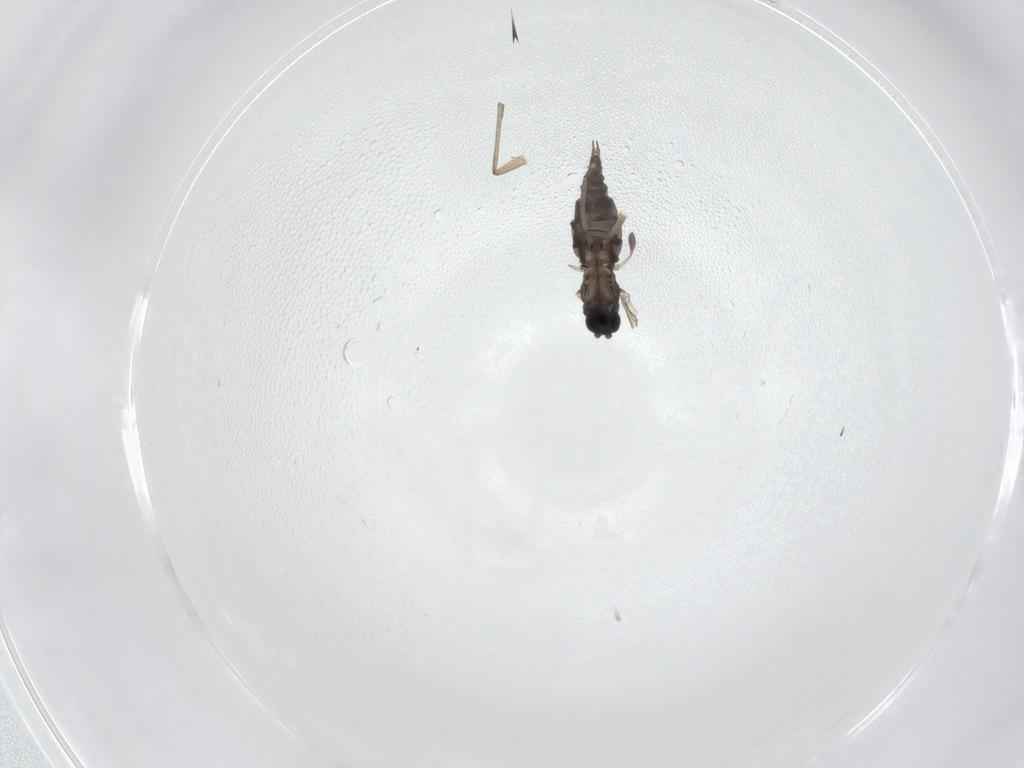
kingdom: Animalia
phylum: Arthropoda
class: Insecta
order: Diptera
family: Sciaridae
